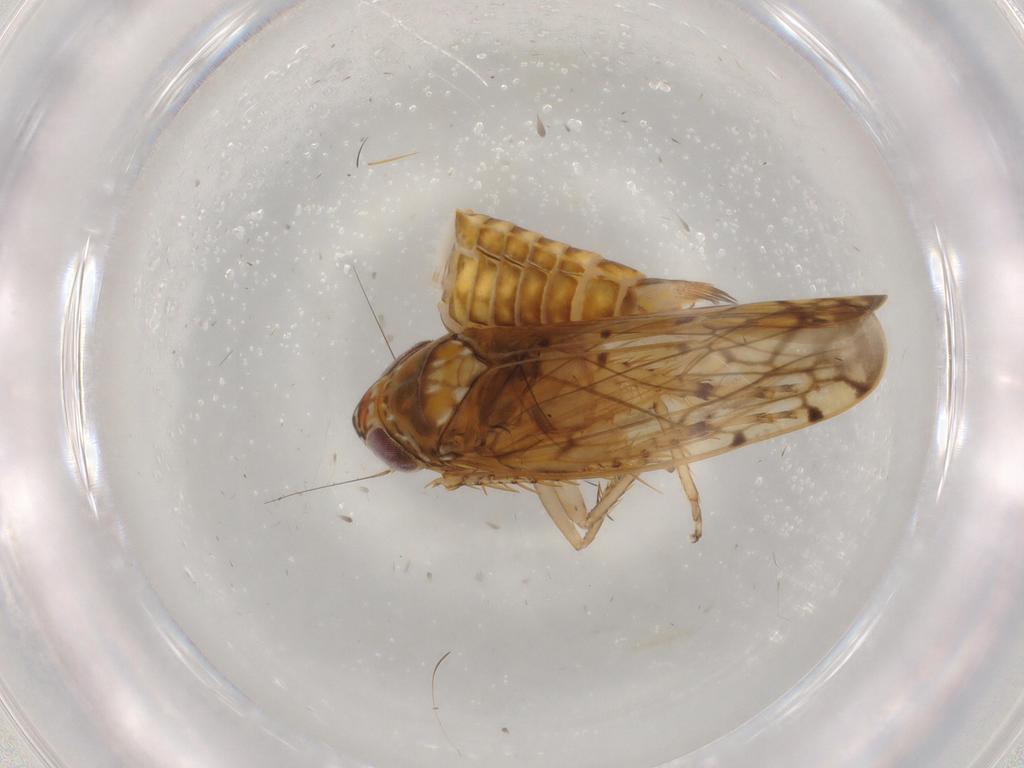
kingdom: Animalia
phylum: Arthropoda
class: Insecta
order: Hemiptera
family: Cicadellidae
